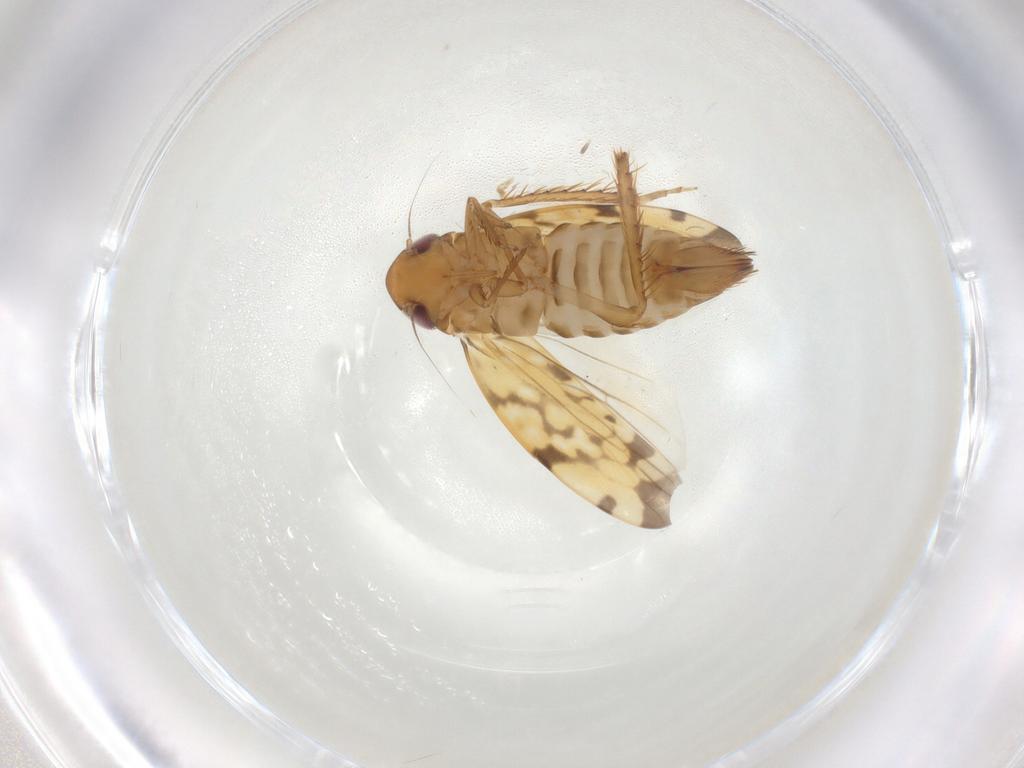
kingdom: Animalia
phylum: Arthropoda
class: Insecta
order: Hemiptera
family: Cicadellidae
